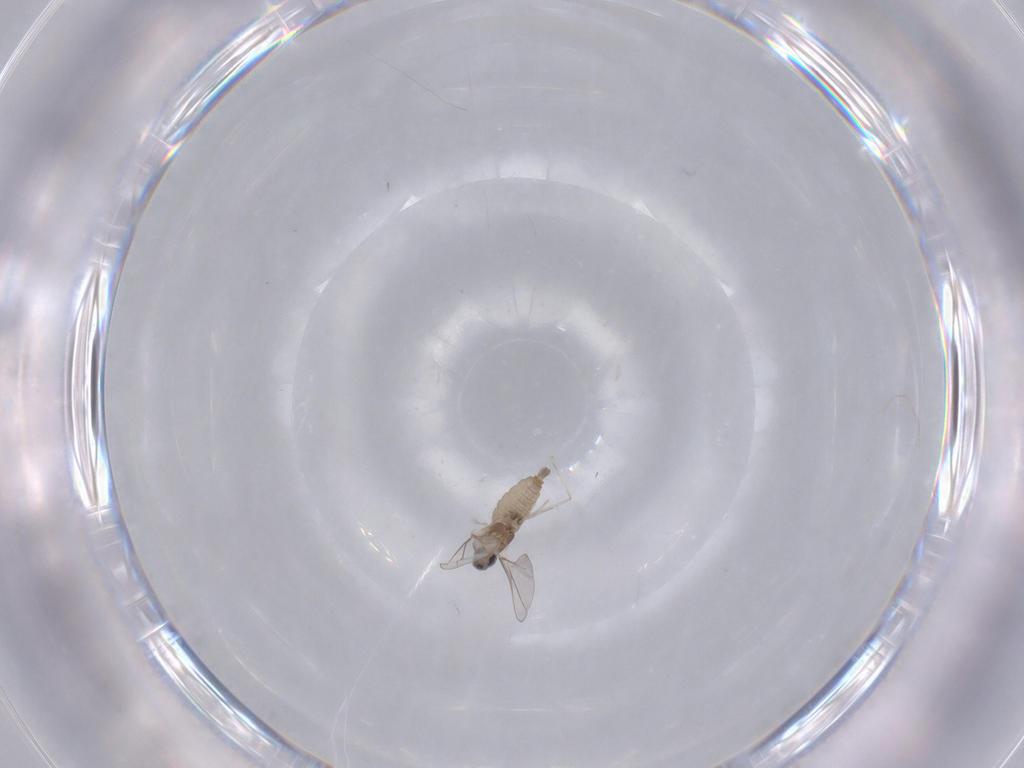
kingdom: Animalia
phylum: Arthropoda
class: Insecta
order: Diptera
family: Cecidomyiidae
